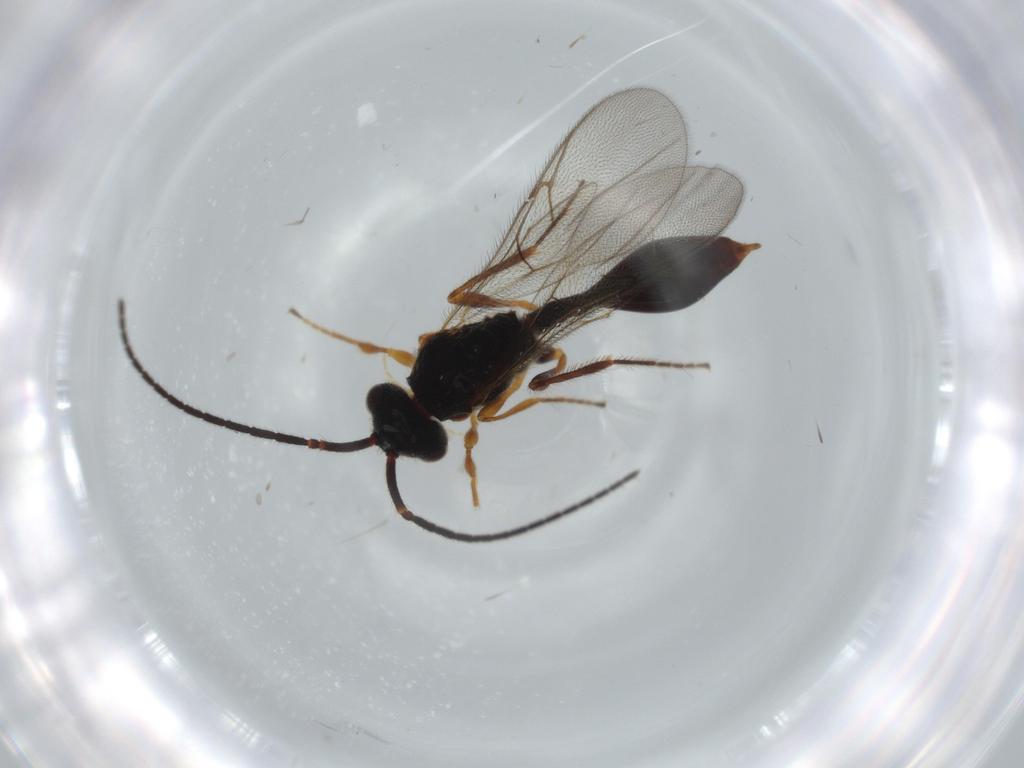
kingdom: Animalia
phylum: Arthropoda
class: Insecta
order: Hymenoptera
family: Diapriidae
